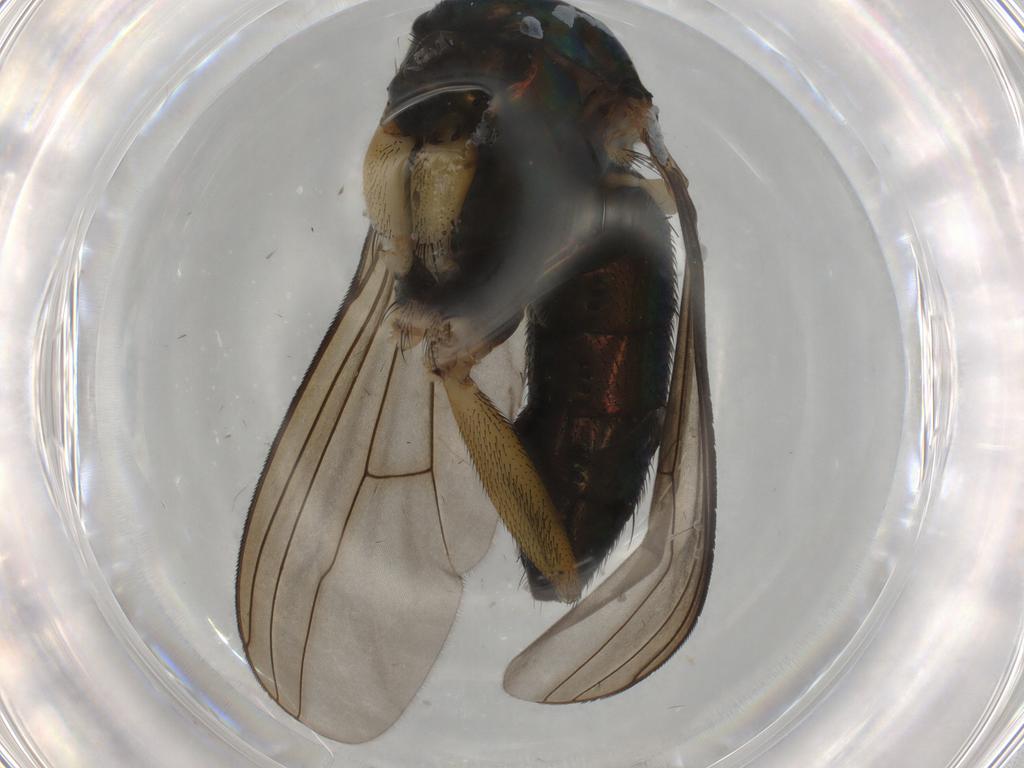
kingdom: Animalia
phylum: Arthropoda
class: Insecta
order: Diptera
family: Dolichopodidae
